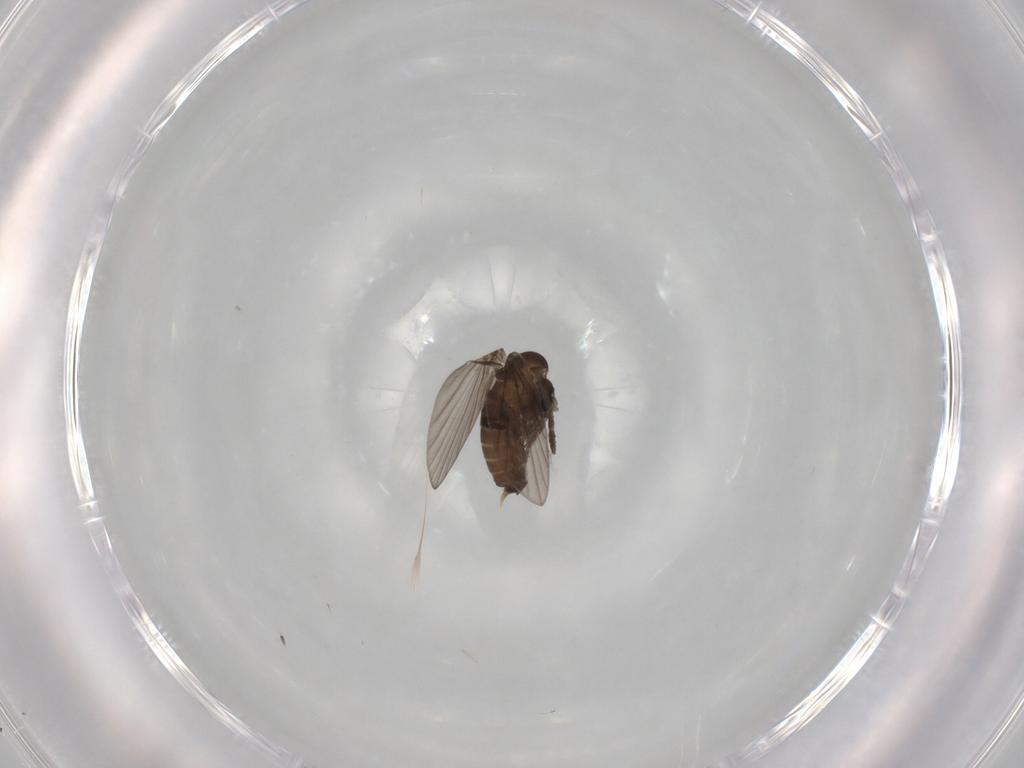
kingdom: Animalia
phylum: Arthropoda
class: Insecta
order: Diptera
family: Psychodidae
